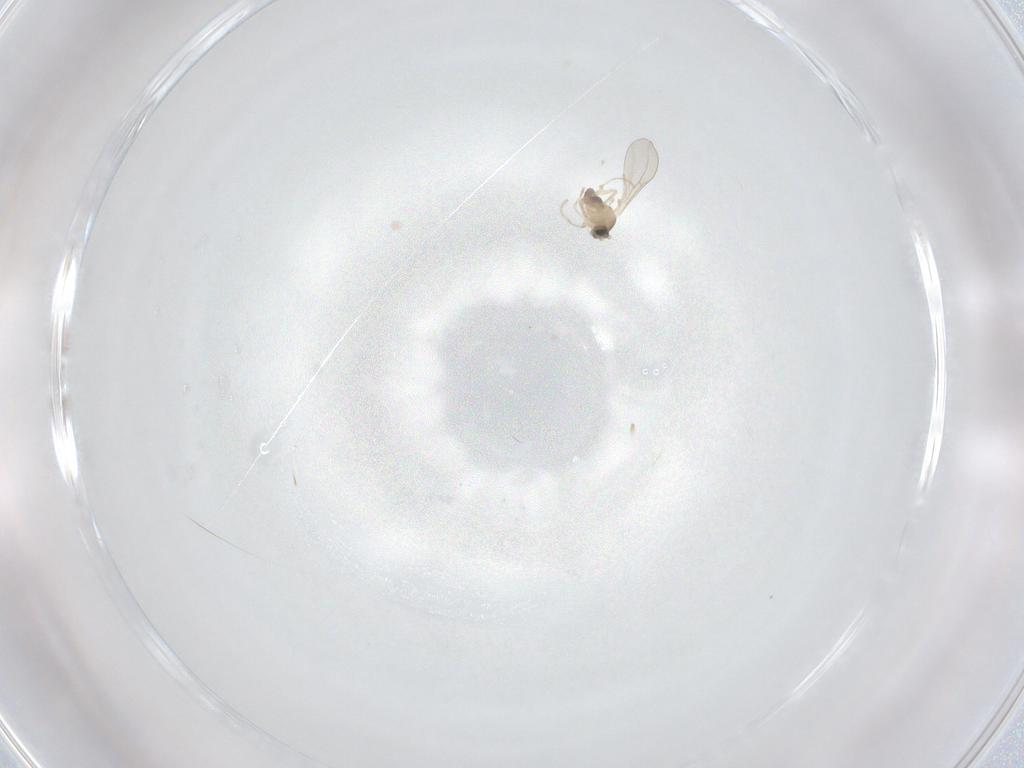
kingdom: Animalia
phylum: Arthropoda
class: Insecta
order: Diptera
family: Cecidomyiidae
